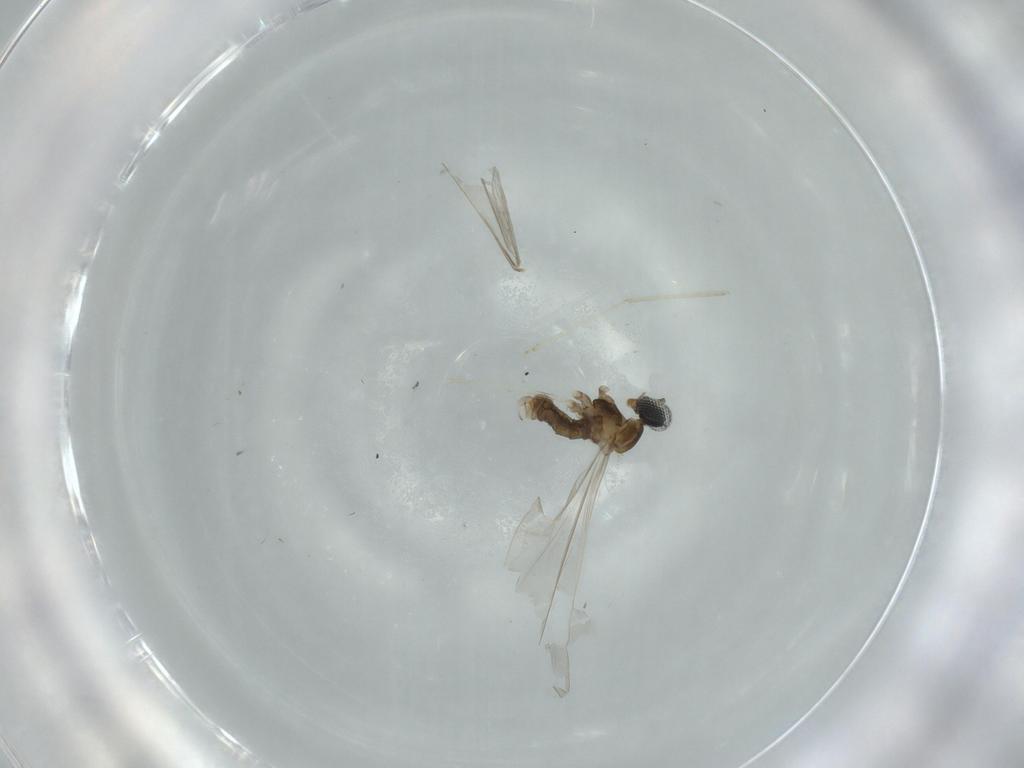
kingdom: Animalia
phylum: Arthropoda
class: Insecta
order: Diptera
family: Cecidomyiidae
